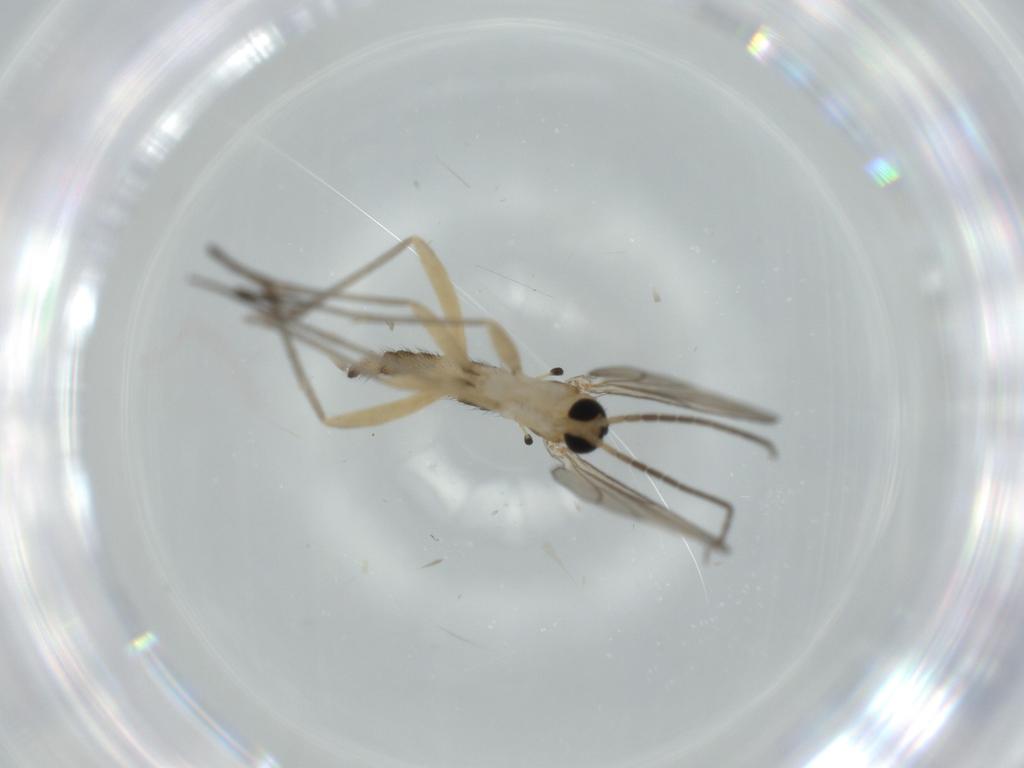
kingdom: Animalia
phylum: Arthropoda
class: Insecta
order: Diptera
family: Sciaridae
